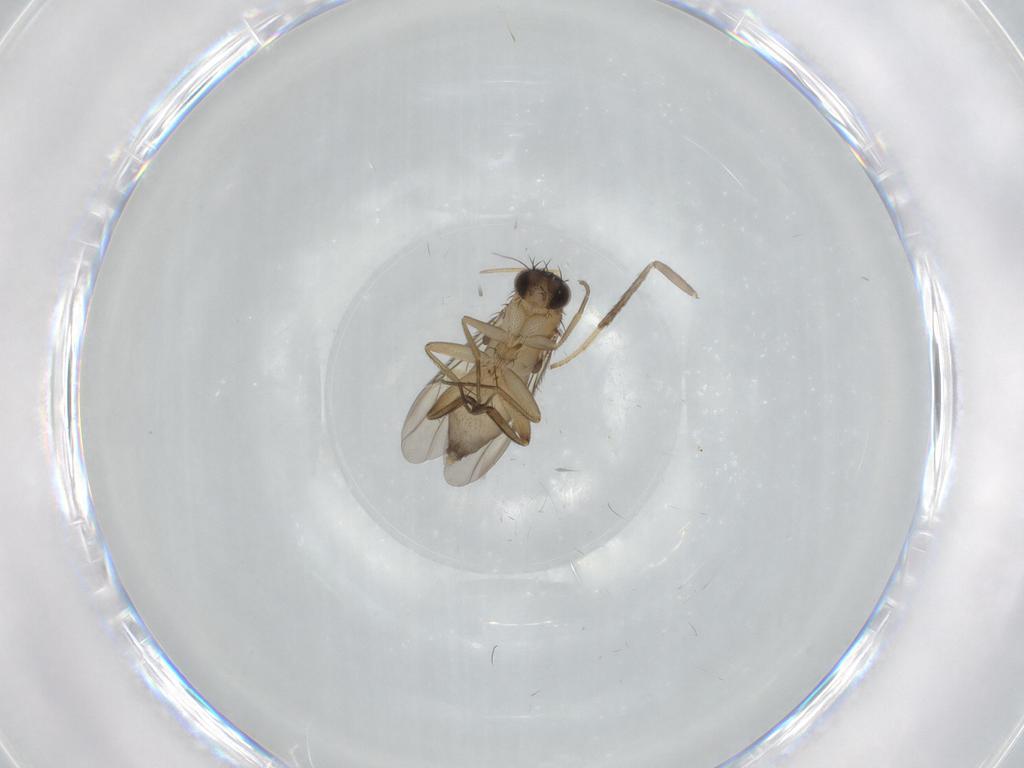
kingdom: Animalia
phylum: Arthropoda
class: Insecta
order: Diptera
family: Phoridae
